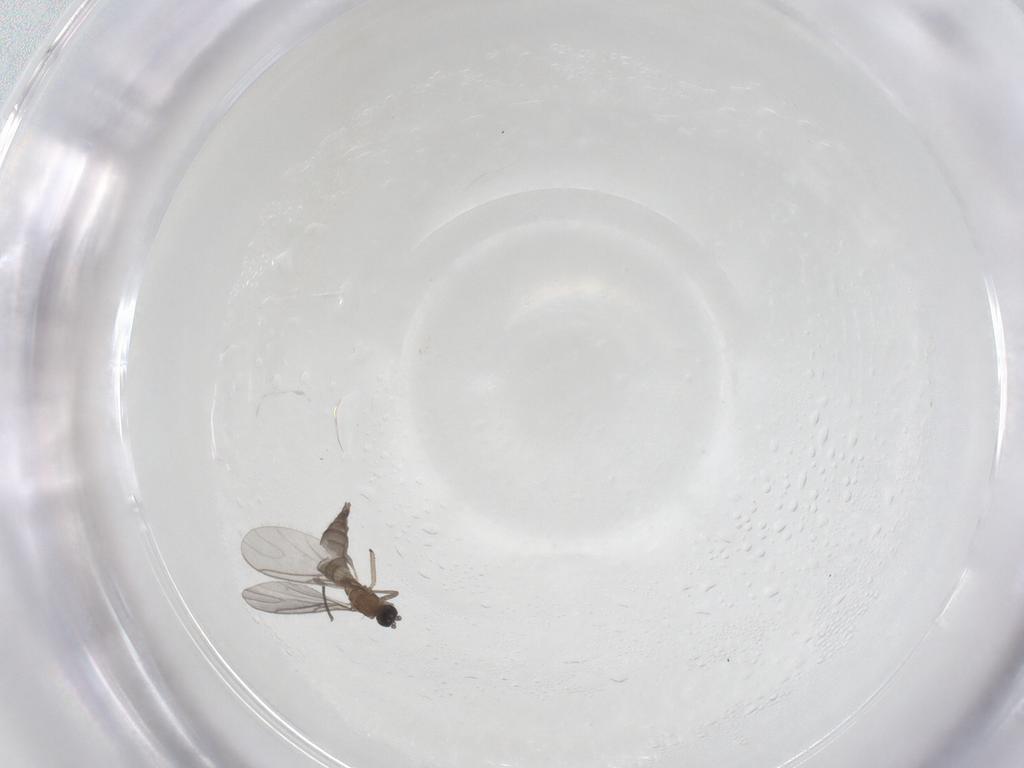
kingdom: Animalia
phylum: Arthropoda
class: Insecta
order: Diptera
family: Sciaridae
